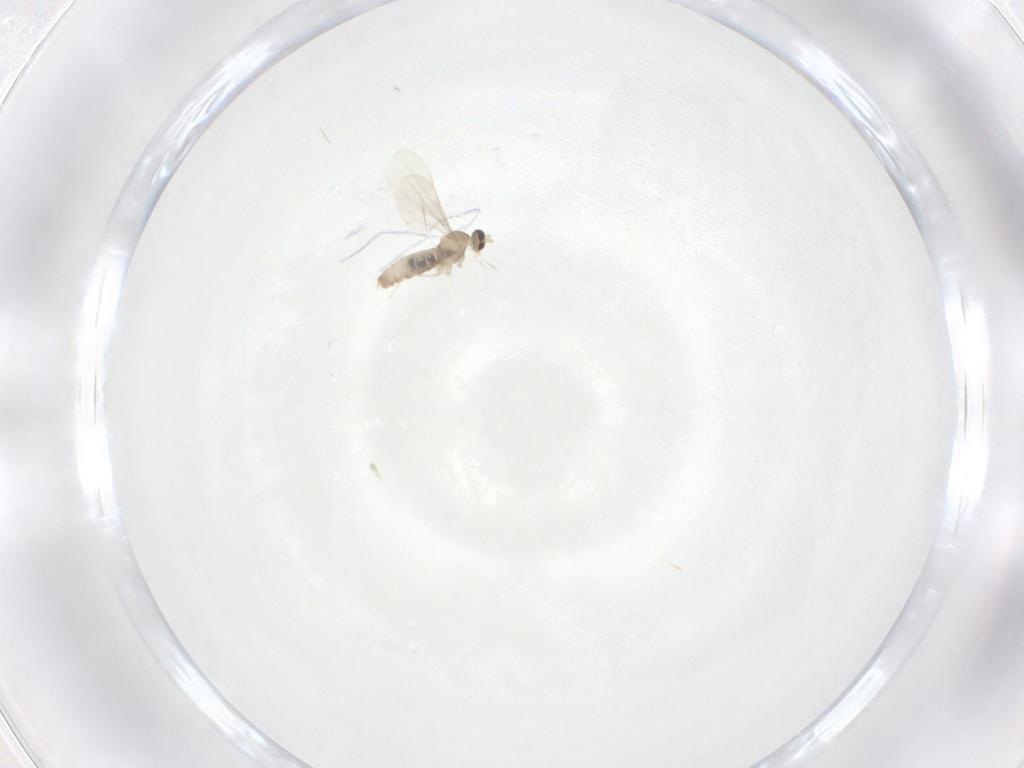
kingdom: Animalia
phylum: Arthropoda
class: Insecta
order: Diptera
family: Cecidomyiidae
